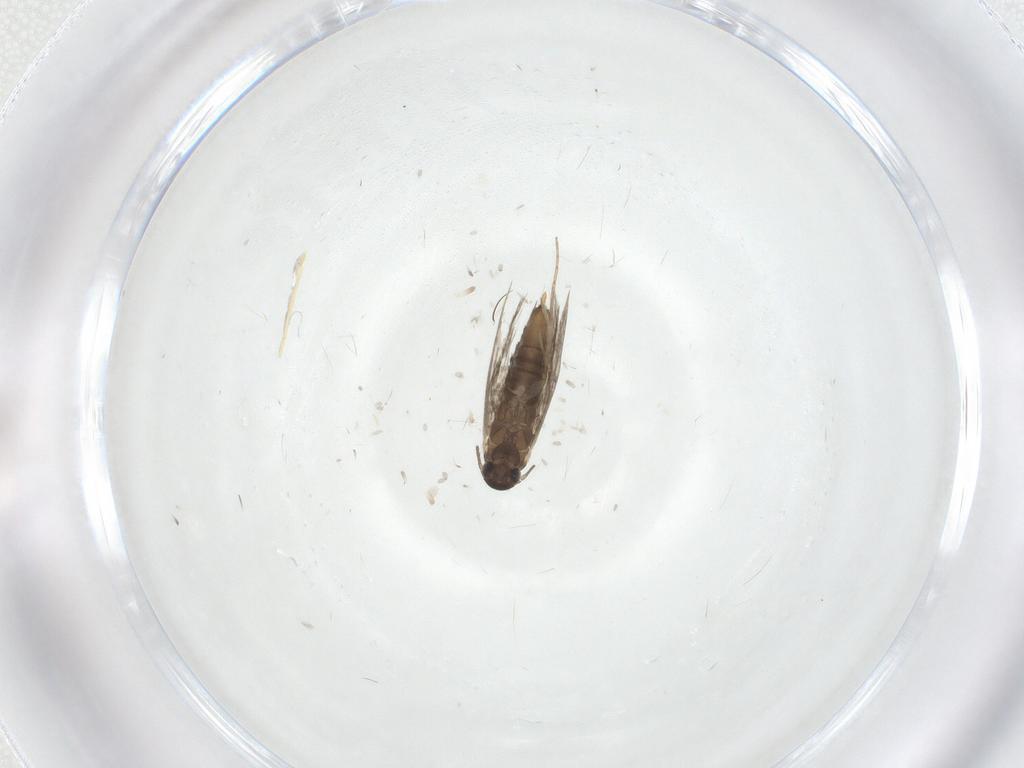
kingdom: Animalia
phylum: Arthropoda
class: Insecta
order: Lepidoptera
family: Heliozelidae
